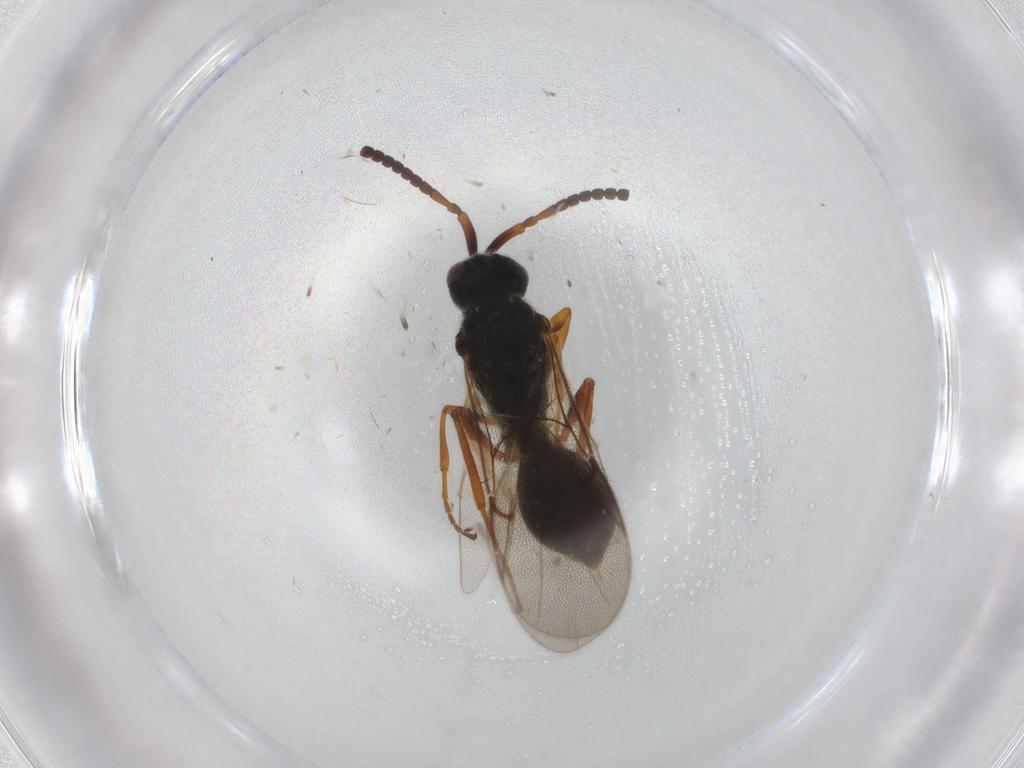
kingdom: Animalia
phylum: Arthropoda
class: Insecta
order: Hymenoptera
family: Diapriidae
